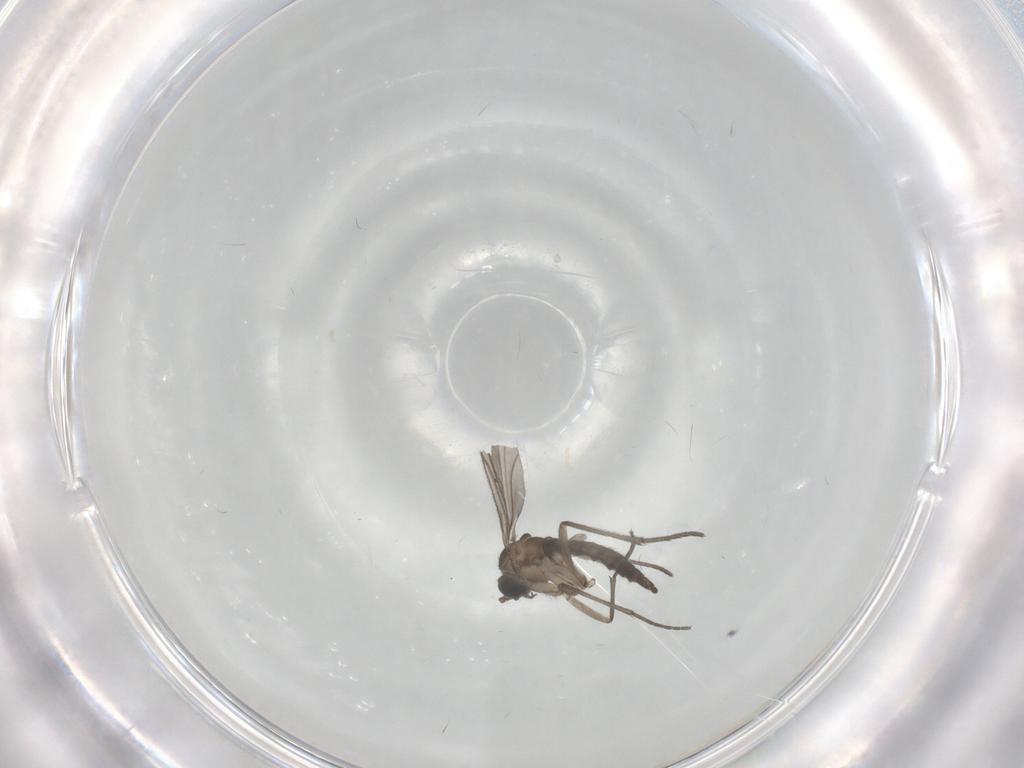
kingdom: Animalia
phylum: Arthropoda
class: Insecta
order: Diptera
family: Sciaridae
